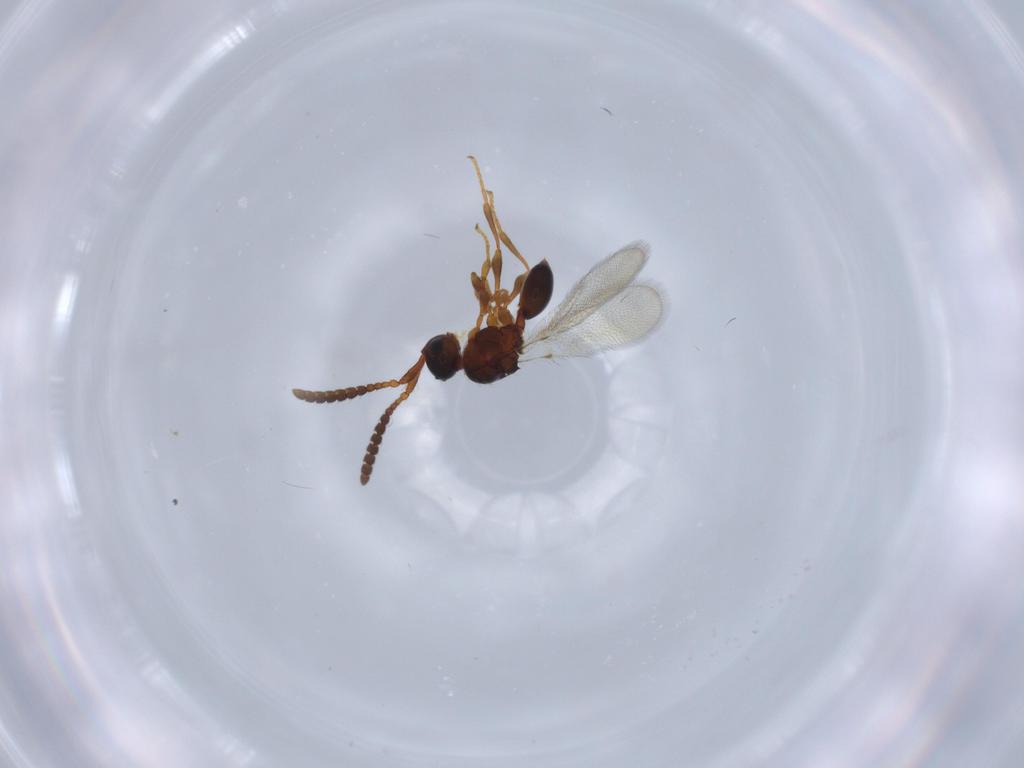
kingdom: Animalia
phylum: Arthropoda
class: Insecta
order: Hymenoptera
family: Diapriidae
